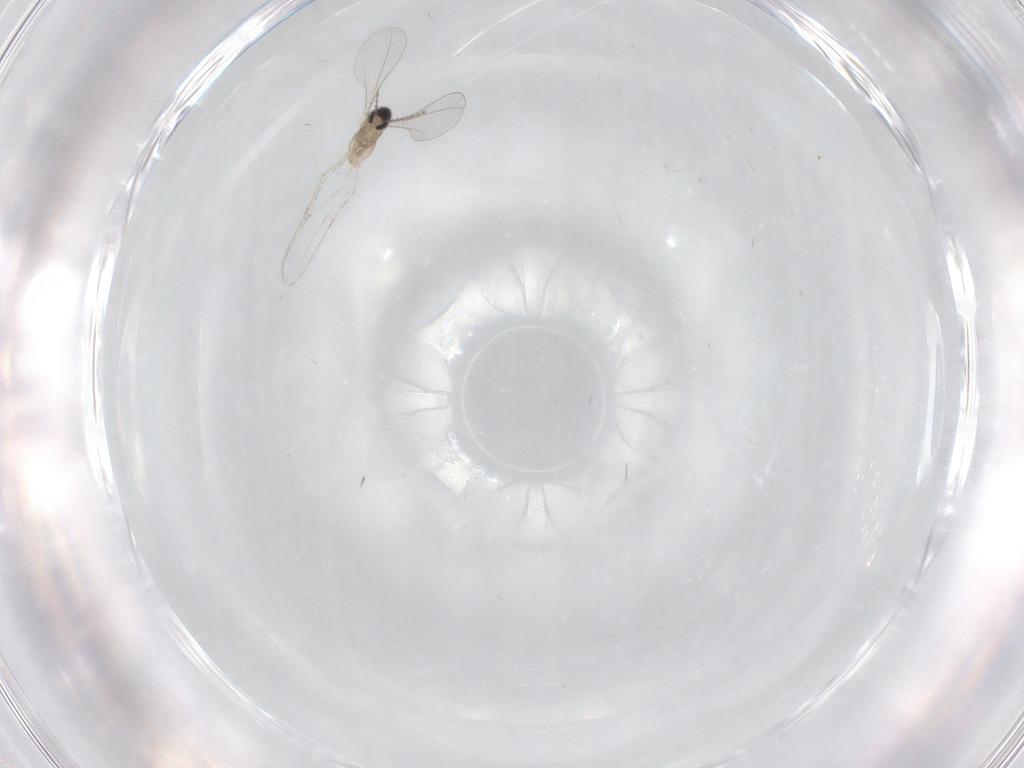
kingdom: Animalia
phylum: Arthropoda
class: Insecta
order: Diptera
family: Cecidomyiidae
